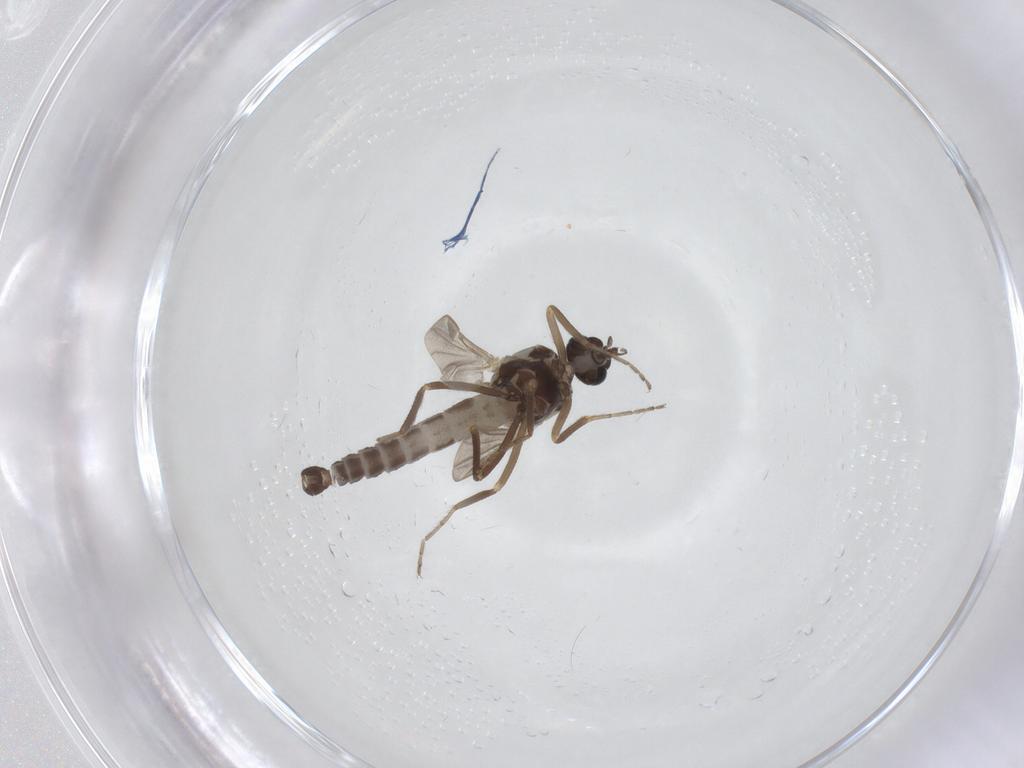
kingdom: Animalia
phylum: Arthropoda
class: Insecta
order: Diptera
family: Ceratopogonidae
